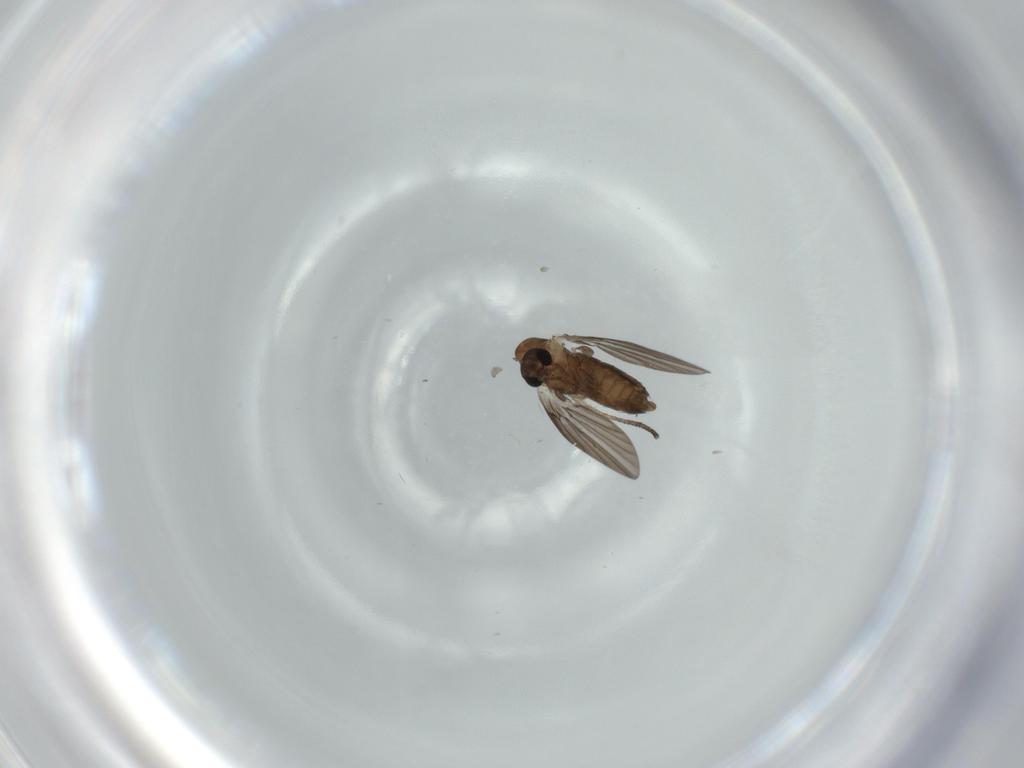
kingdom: Animalia
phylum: Arthropoda
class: Insecta
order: Diptera
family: Psychodidae
